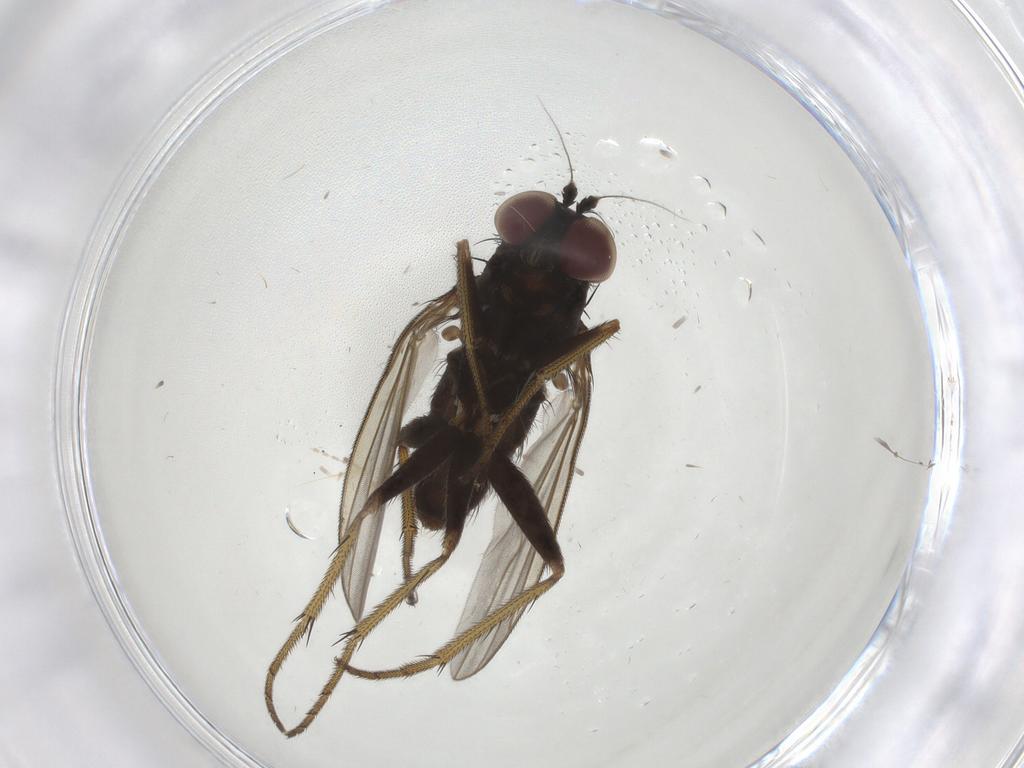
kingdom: Animalia
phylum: Arthropoda
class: Insecta
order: Diptera
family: Dolichopodidae
